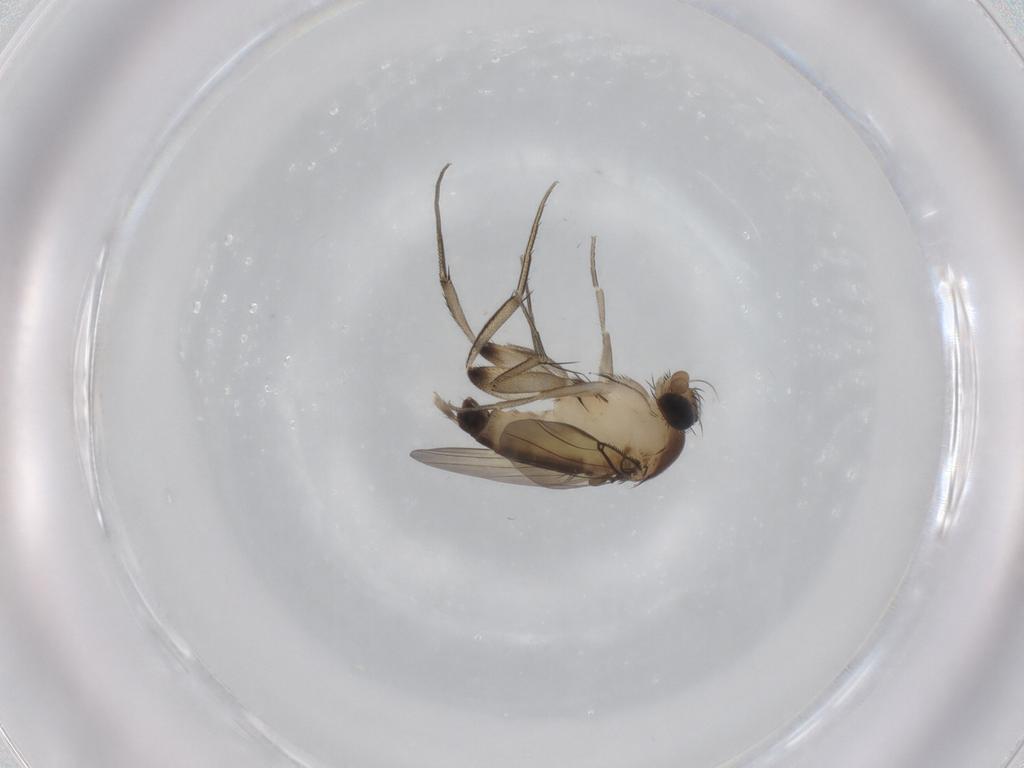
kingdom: Animalia
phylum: Arthropoda
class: Insecta
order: Diptera
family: Phoridae
